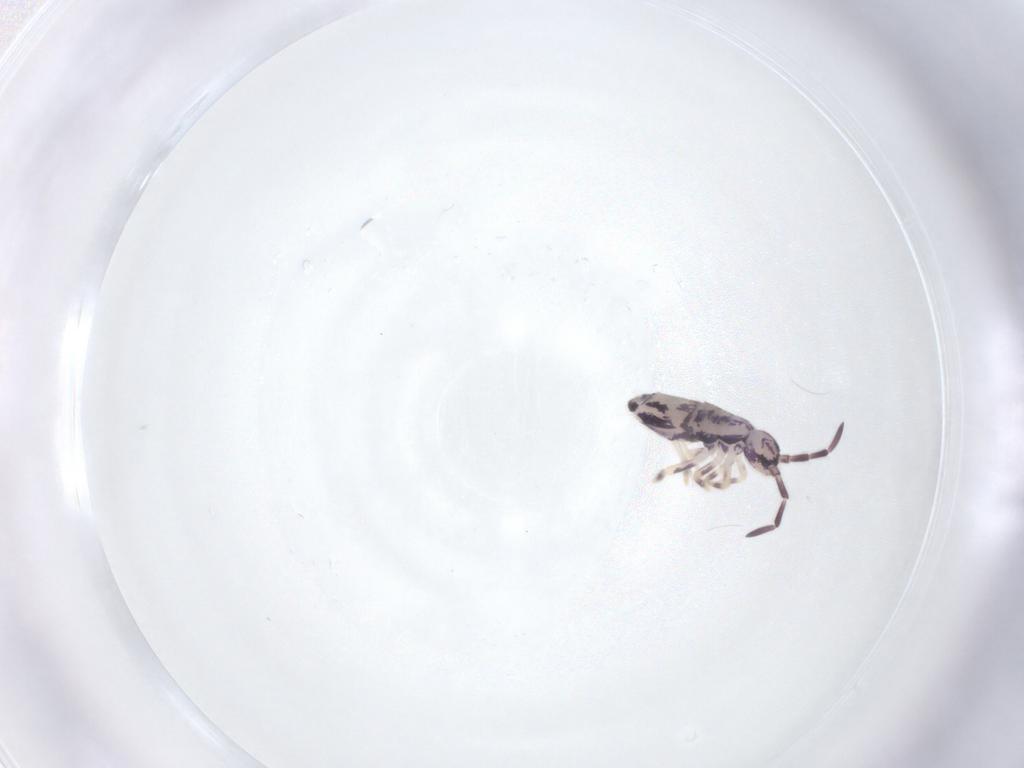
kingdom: Animalia
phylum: Arthropoda
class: Collembola
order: Entomobryomorpha
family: Entomobryidae
